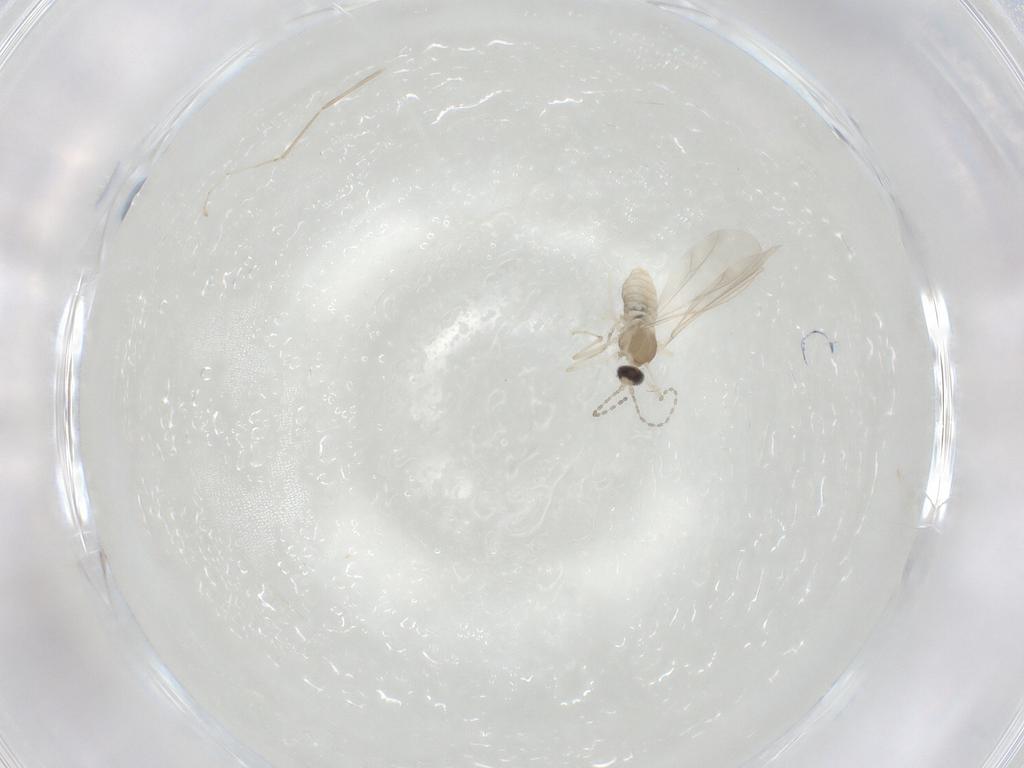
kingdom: Animalia
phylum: Arthropoda
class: Insecta
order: Diptera
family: Cecidomyiidae
